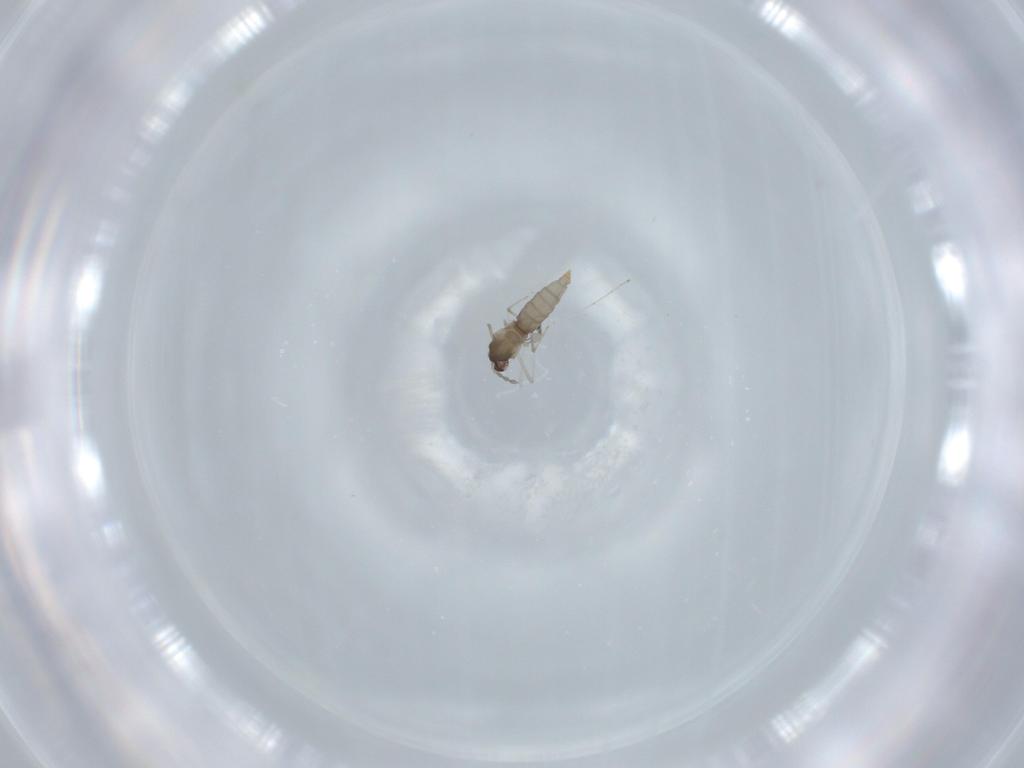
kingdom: Animalia
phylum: Arthropoda
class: Insecta
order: Diptera
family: Cecidomyiidae
